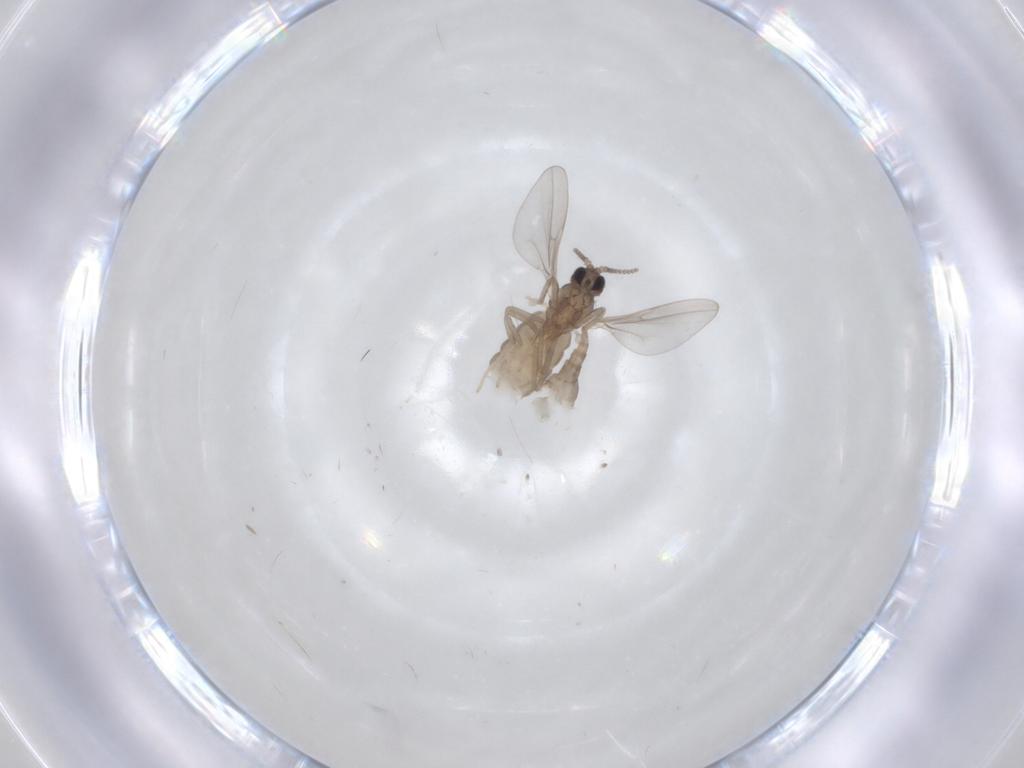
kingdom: Animalia
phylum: Arthropoda
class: Insecta
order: Diptera
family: Cecidomyiidae
